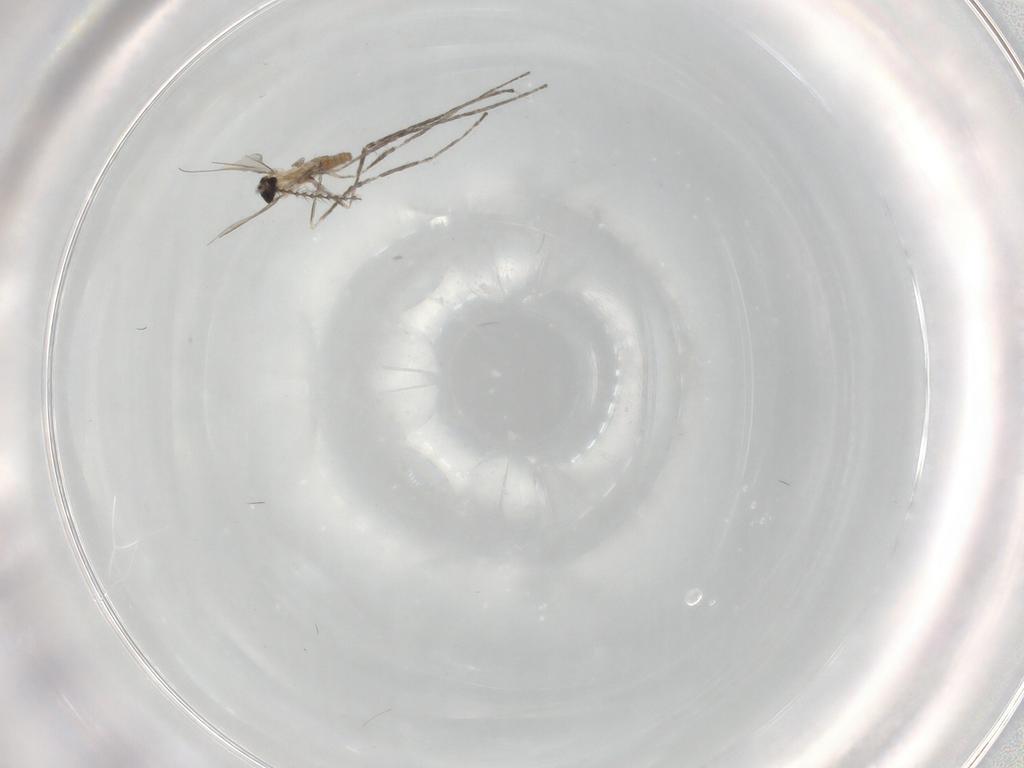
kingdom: Animalia
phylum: Arthropoda
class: Insecta
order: Diptera
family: Cecidomyiidae
